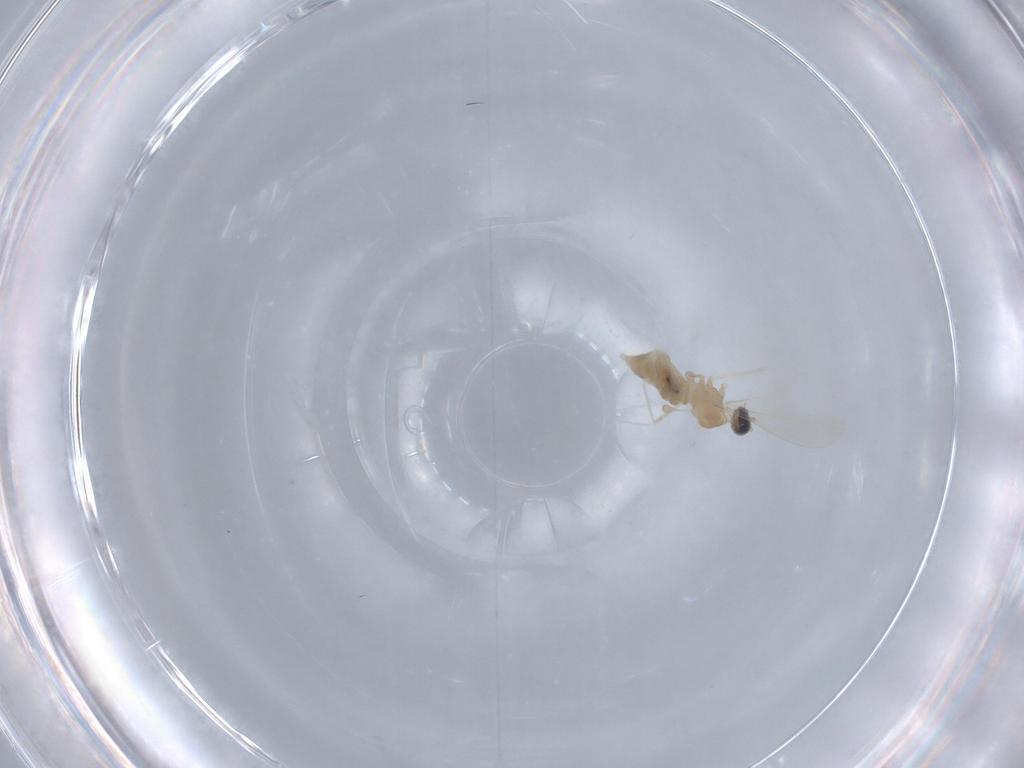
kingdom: Animalia
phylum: Arthropoda
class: Insecta
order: Diptera
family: Cecidomyiidae
